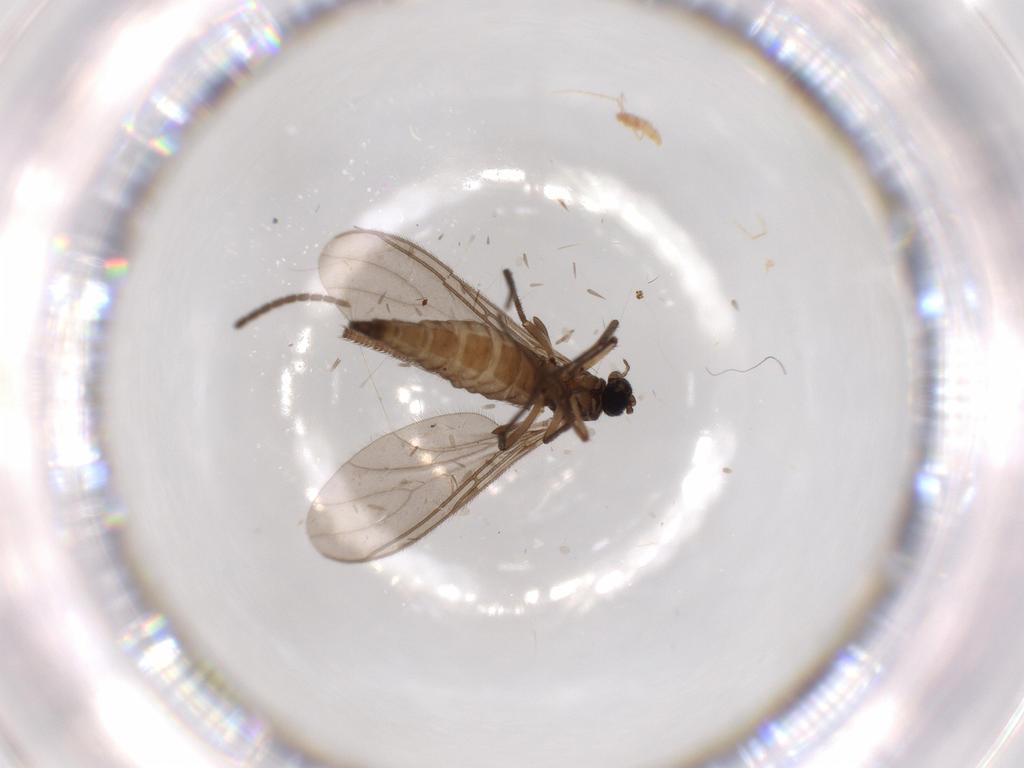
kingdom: Animalia
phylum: Arthropoda
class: Insecta
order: Diptera
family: Sciaridae
